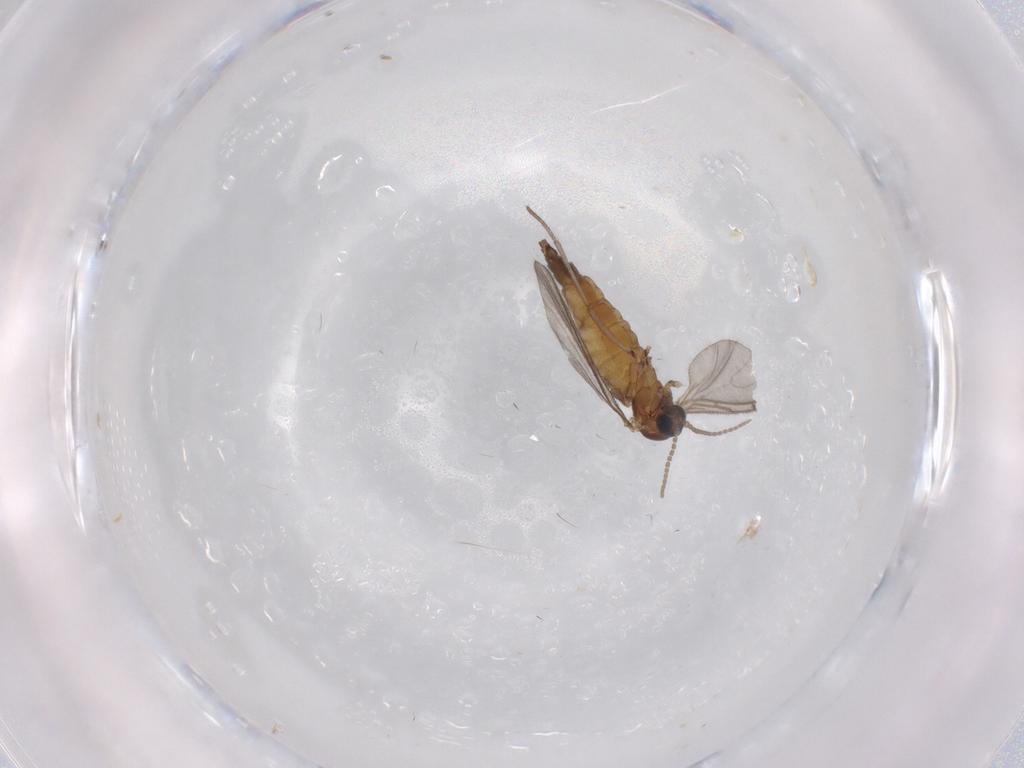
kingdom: Animalia
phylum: Arthropoda
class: Insecta
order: Diptera
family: Sciaridae
